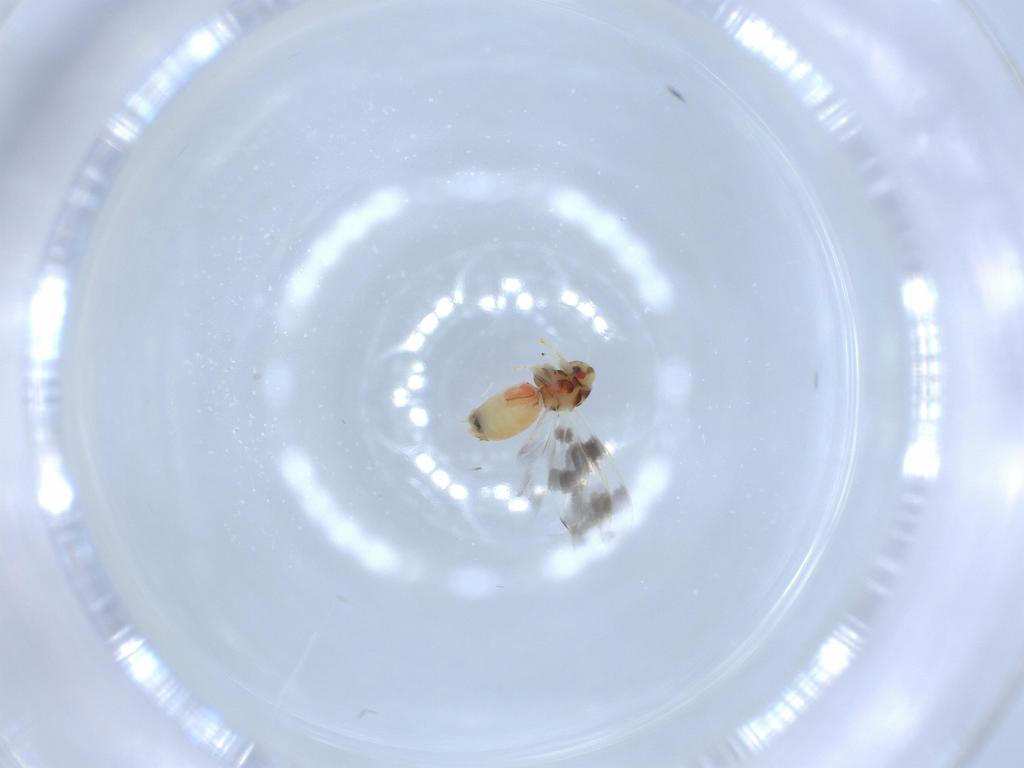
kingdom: Animalia
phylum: Arthropoda
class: Insecta
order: Hemiptera
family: Aleyrodidae
